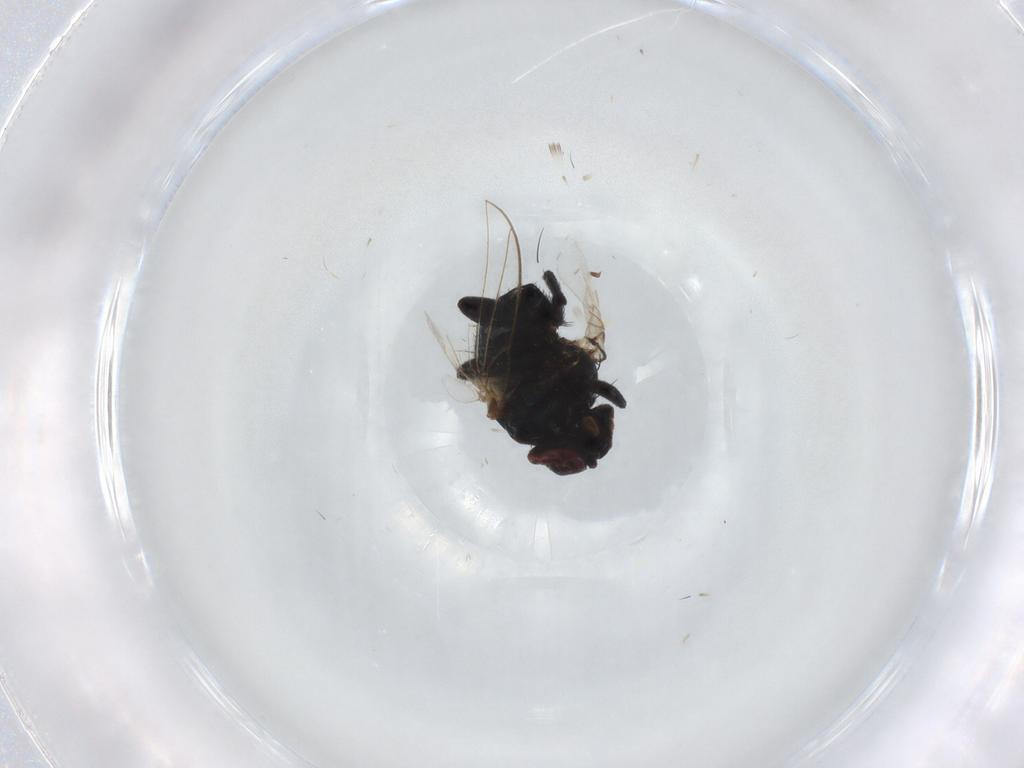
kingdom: Animalia
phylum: Arthropoda
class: Insecta
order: Diptera
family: Agromyzidae
